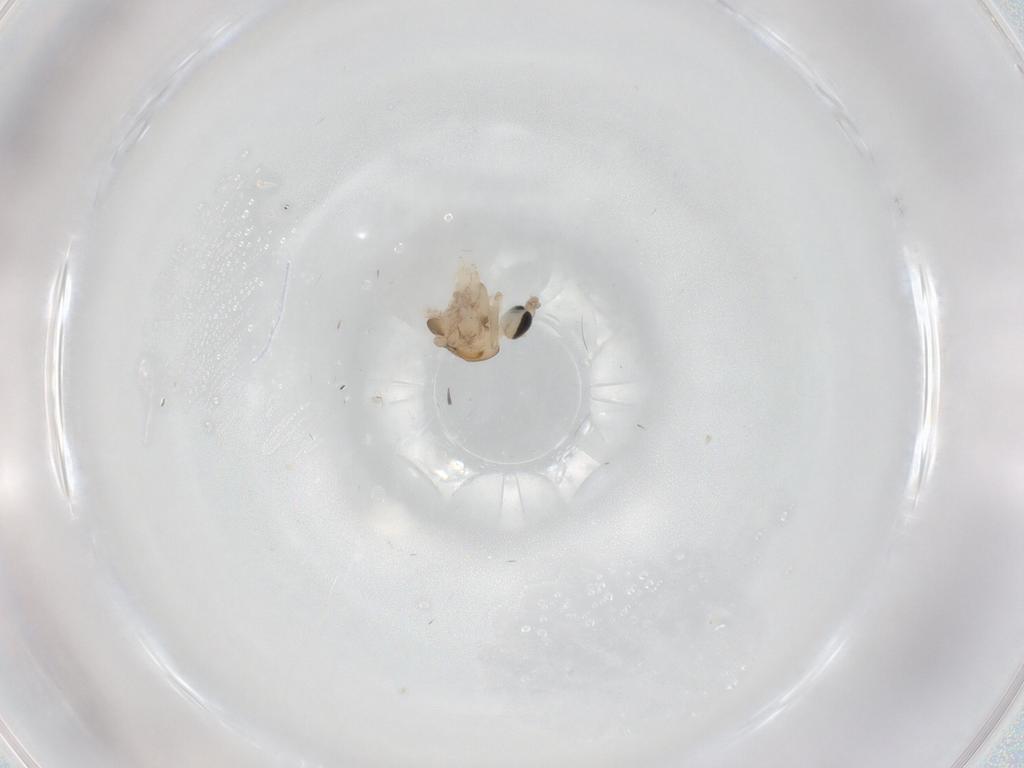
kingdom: Animalia
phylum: Arthropoda
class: Insecta
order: Diptera
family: Chironomidae
